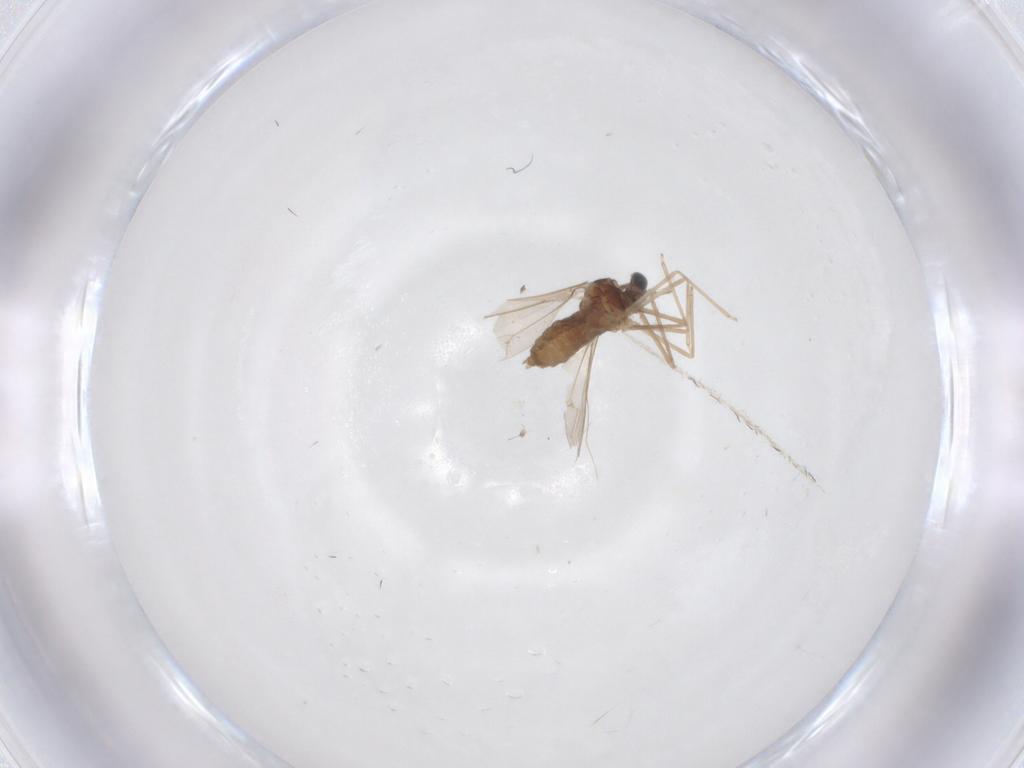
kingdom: Animalia
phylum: Arthropoda
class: Insecta
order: Diptera
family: Cecidomyiidae
